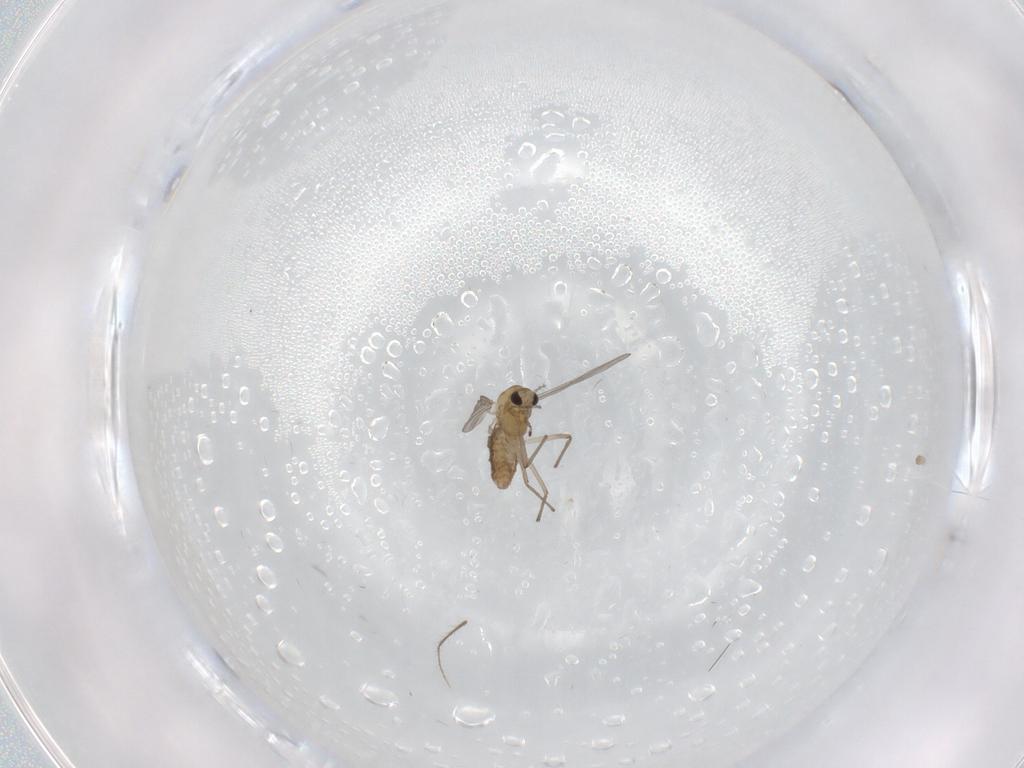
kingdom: Animalia
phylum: Arthropoda
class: Insecta
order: Diptera
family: Chironomidae
